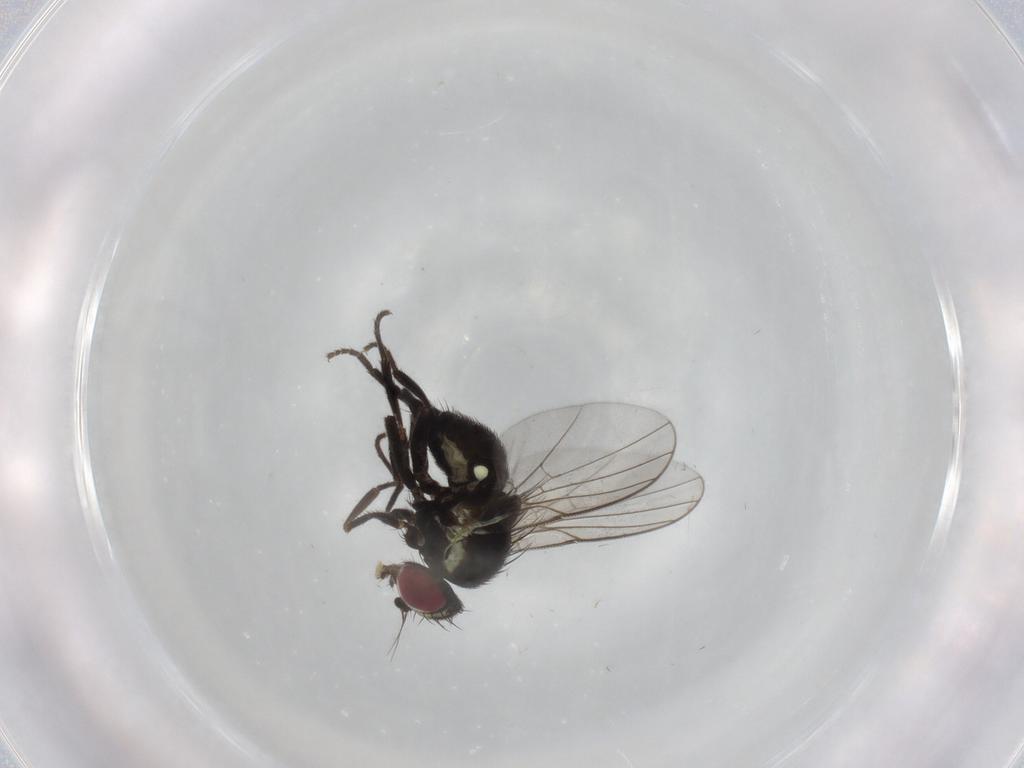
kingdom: Animalia
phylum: Arthropoda
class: Insecta
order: Diptera
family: Agromyzidae
